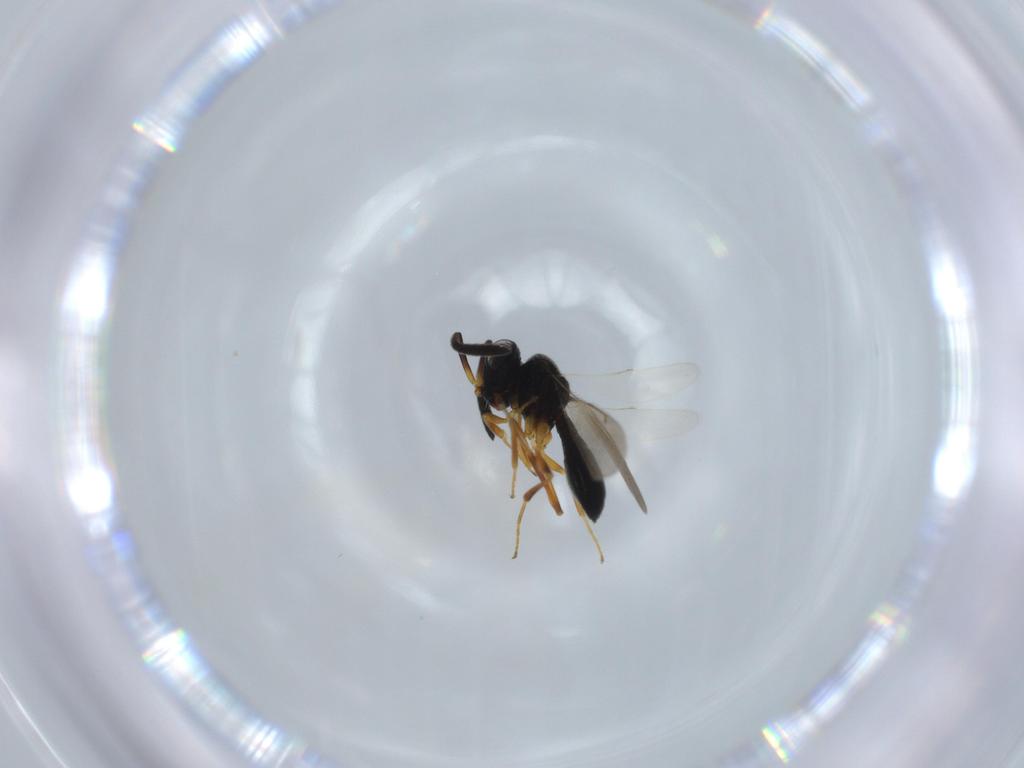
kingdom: Animalia
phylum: Arthropoda
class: Insecta
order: Hymenoptera
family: Scelionidae
